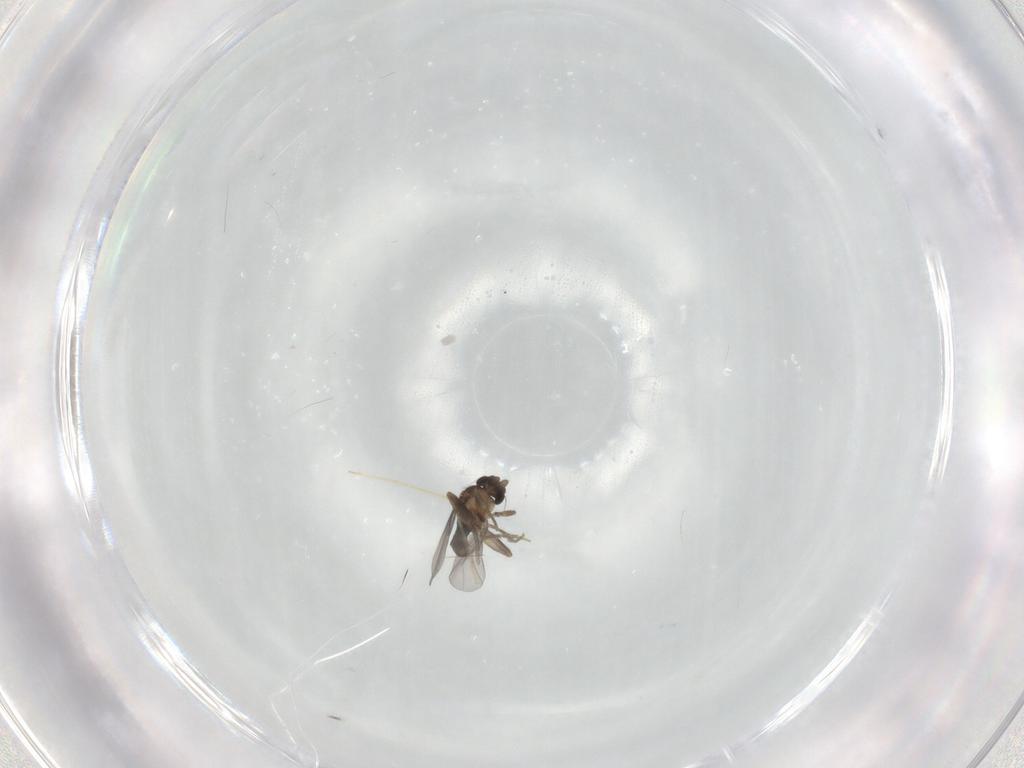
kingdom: Animalia
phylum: Arthropoda
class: Insecta
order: Diptera
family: Chironomidae
